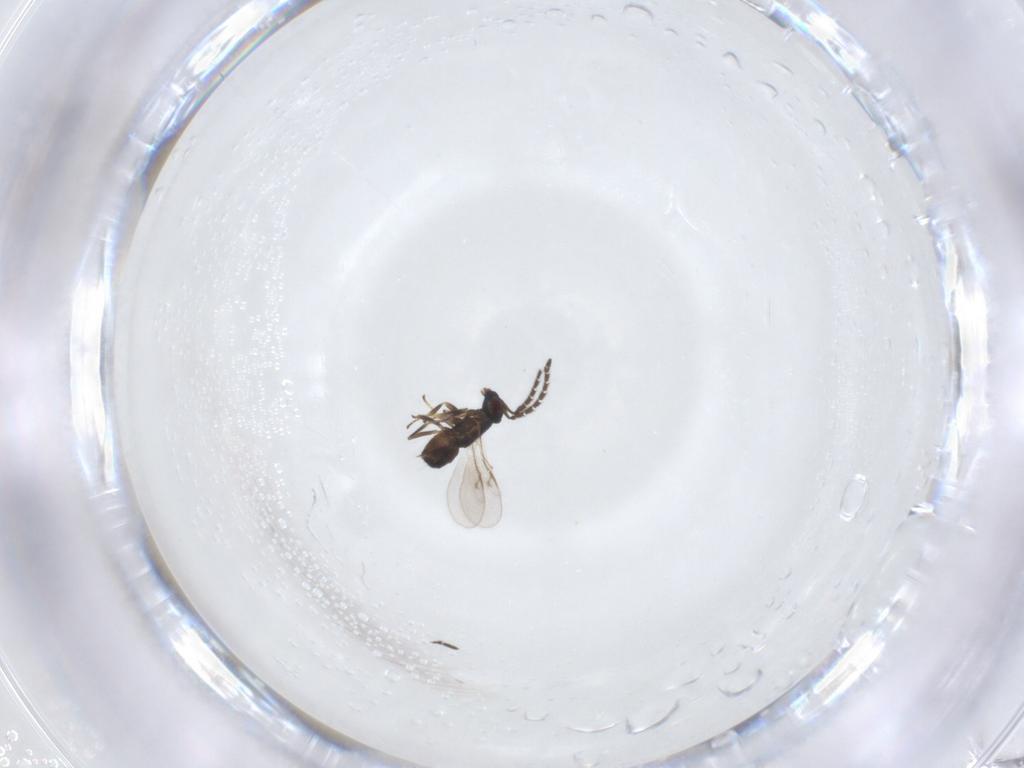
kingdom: Animalia
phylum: Arthropoda
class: Insecta
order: Hymenoptera
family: Encyrtidae
